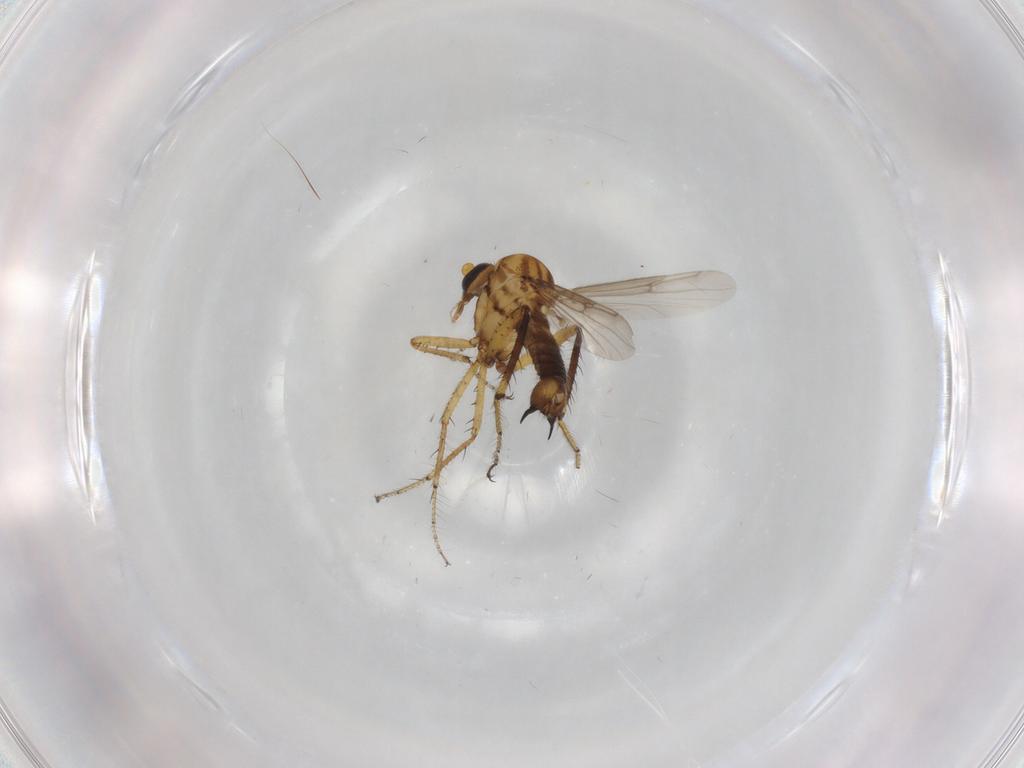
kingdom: Animalia
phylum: Arthropoda
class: Insecta
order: Diptera
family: Ceratopogonidae
